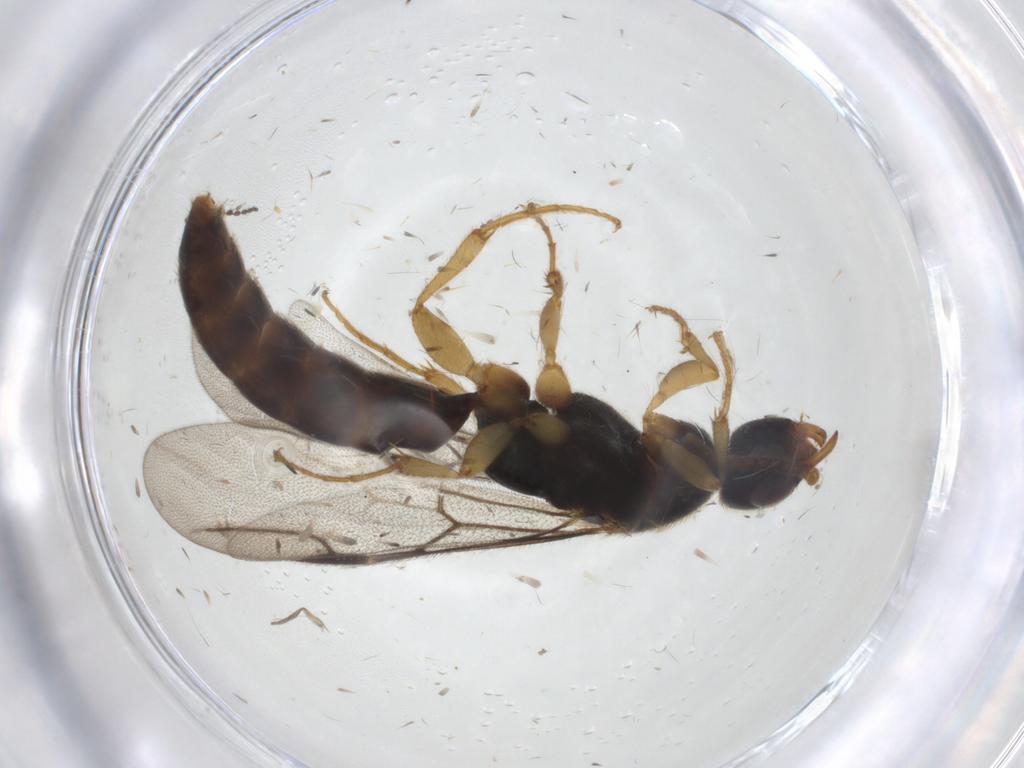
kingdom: Animalia
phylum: Arthropoda
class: Insecta
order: Hymenoptera
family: Bethylidae
